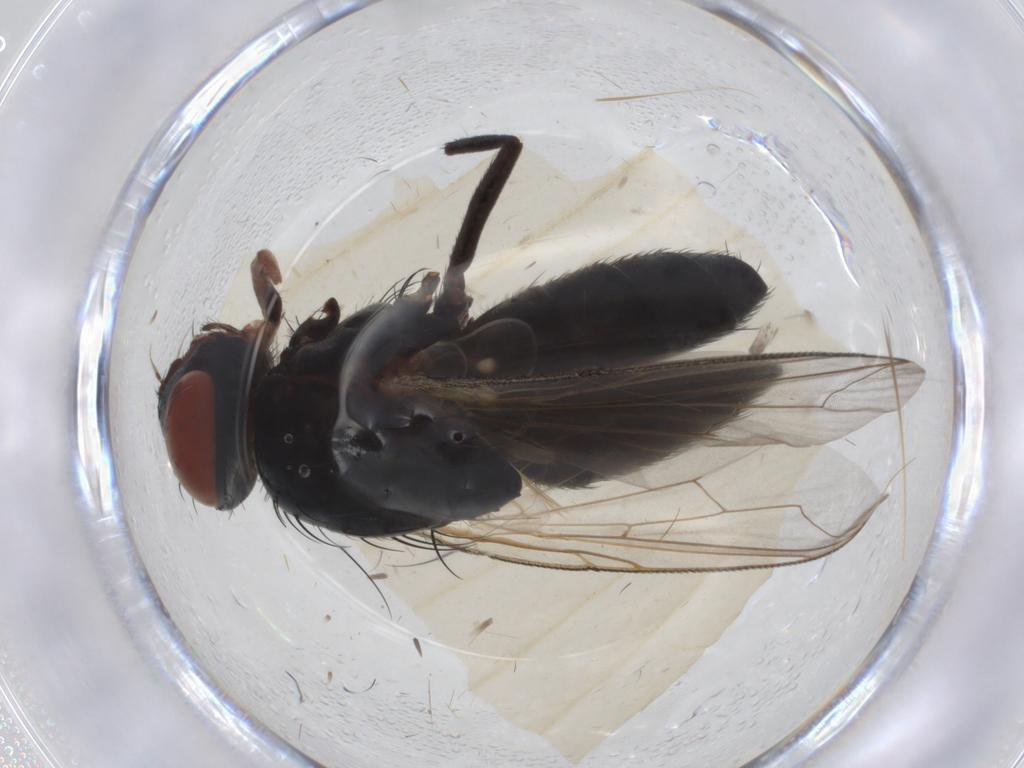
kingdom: Animalia
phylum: Arthropoda
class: Insecta
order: Diptera
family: Sarcophagidae
